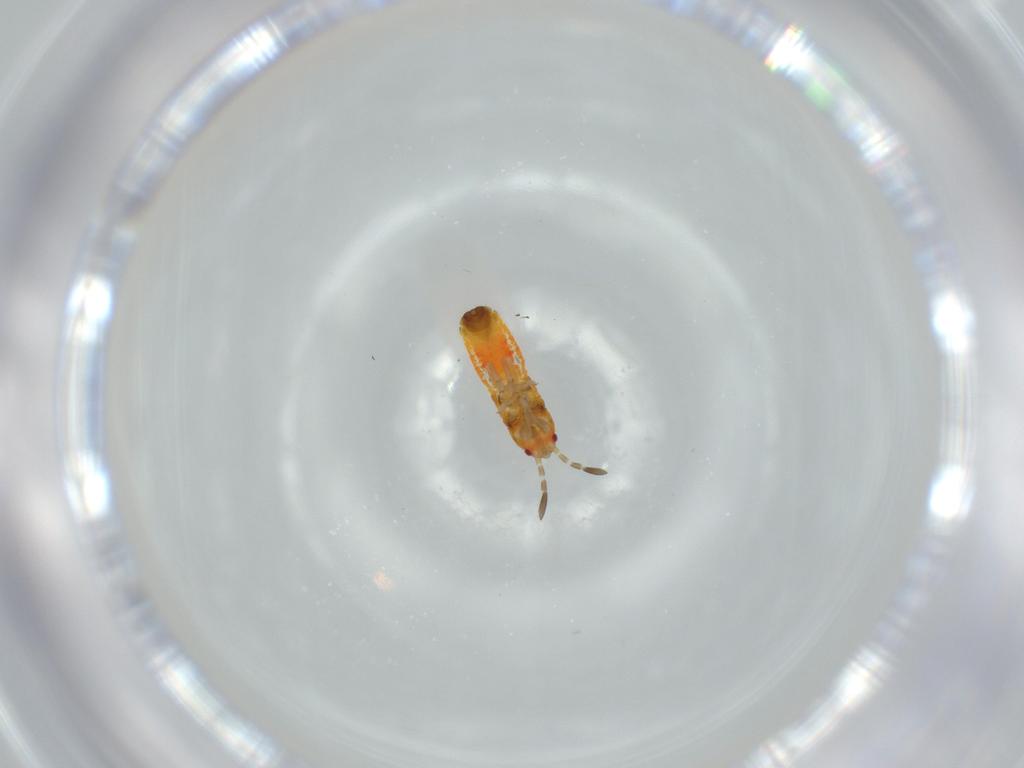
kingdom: Animalia
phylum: Arthropoda
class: Insecta
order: Hemiptera
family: Blissidae
